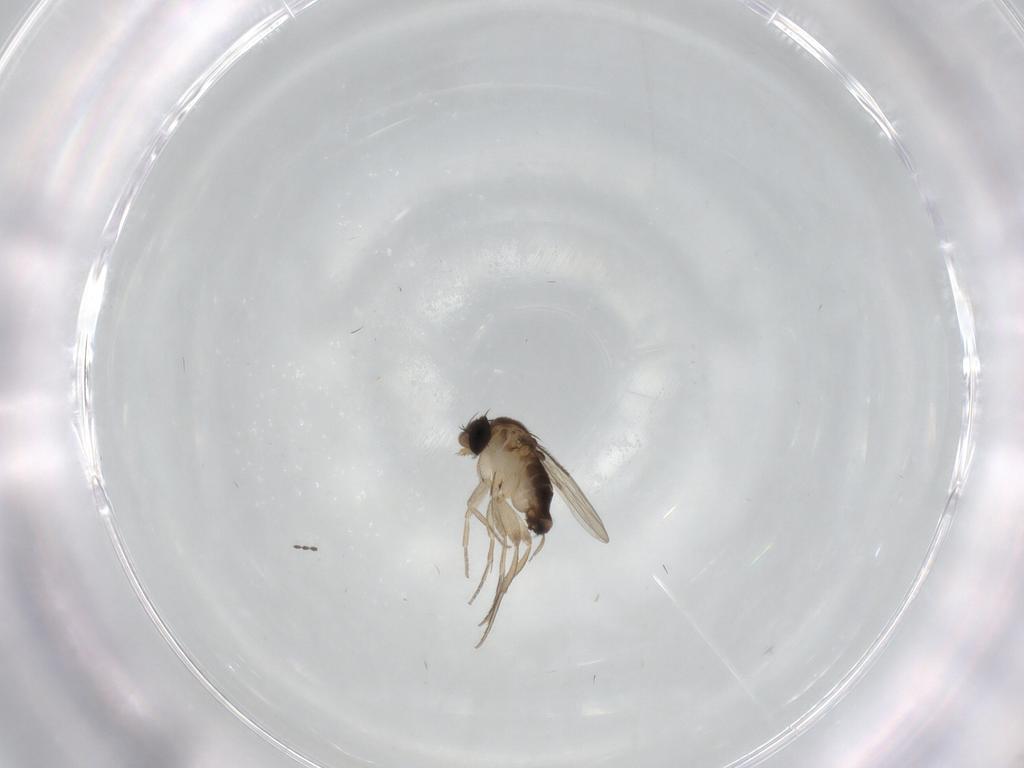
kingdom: Animalia
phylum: Arthropoda
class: Insecta
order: Diptera
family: Cecidomyiidae
